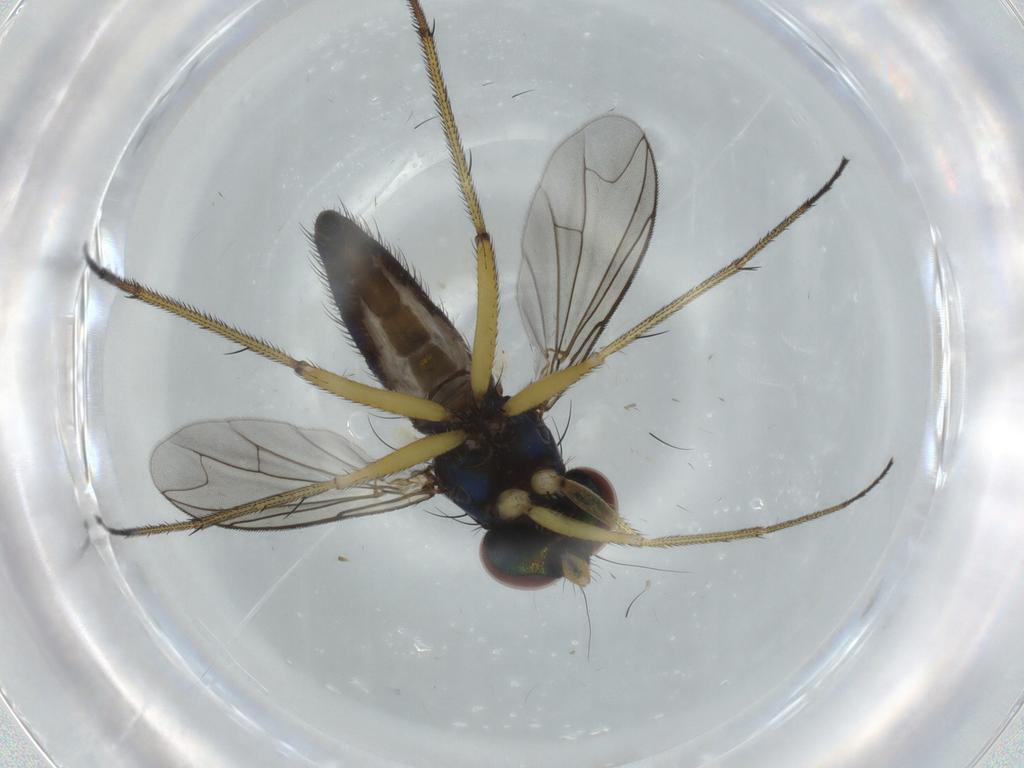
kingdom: Animalia
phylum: Arthropoda
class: Insecta
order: Diptera
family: Dolichopodidae
